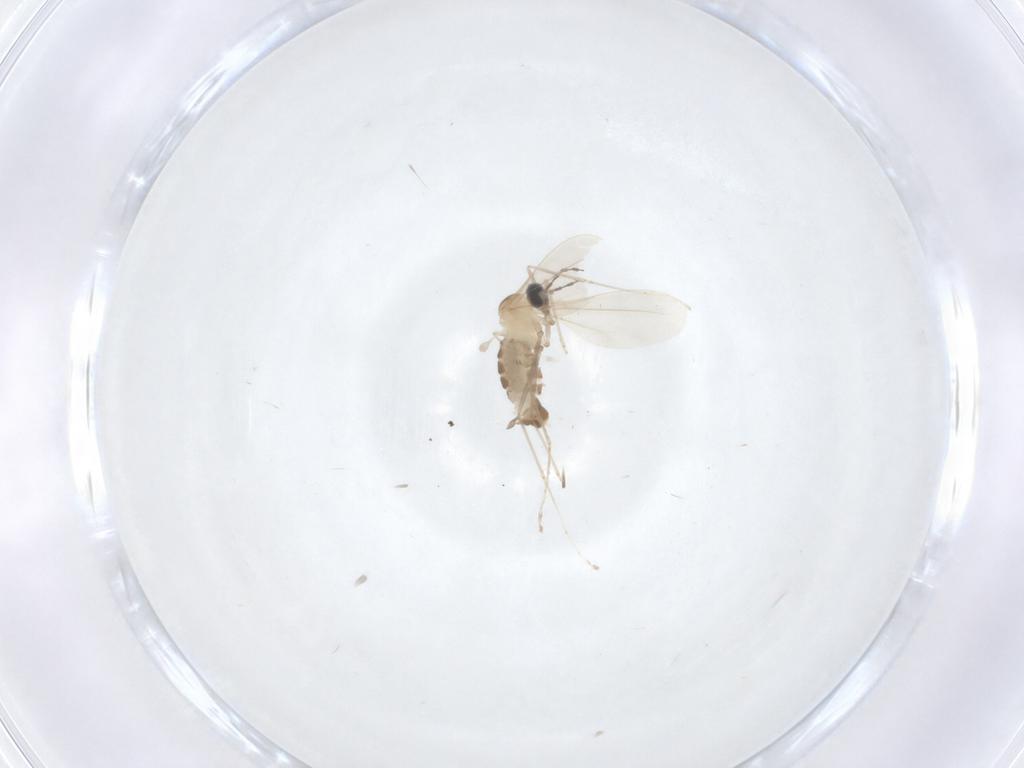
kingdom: Animalia
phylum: Arthropoda
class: Insecta
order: Diptera
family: Cecidomyiidae
